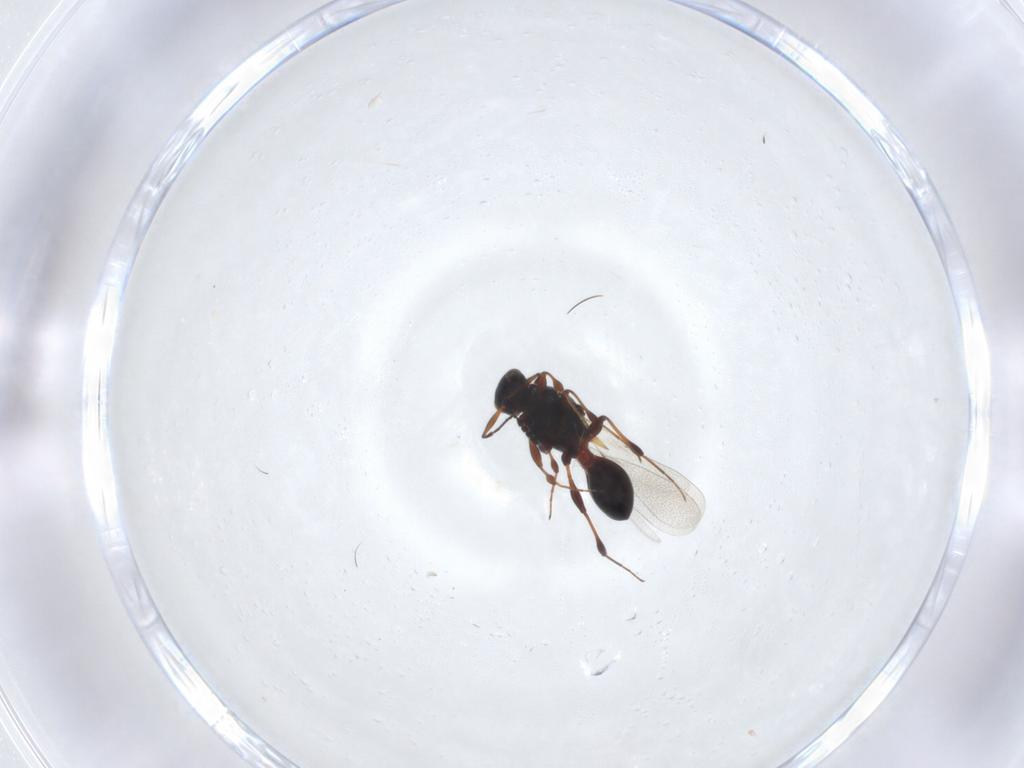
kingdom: Animalia
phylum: Arthropoda
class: Insecta
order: Hymenoptera
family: Platygastridae
